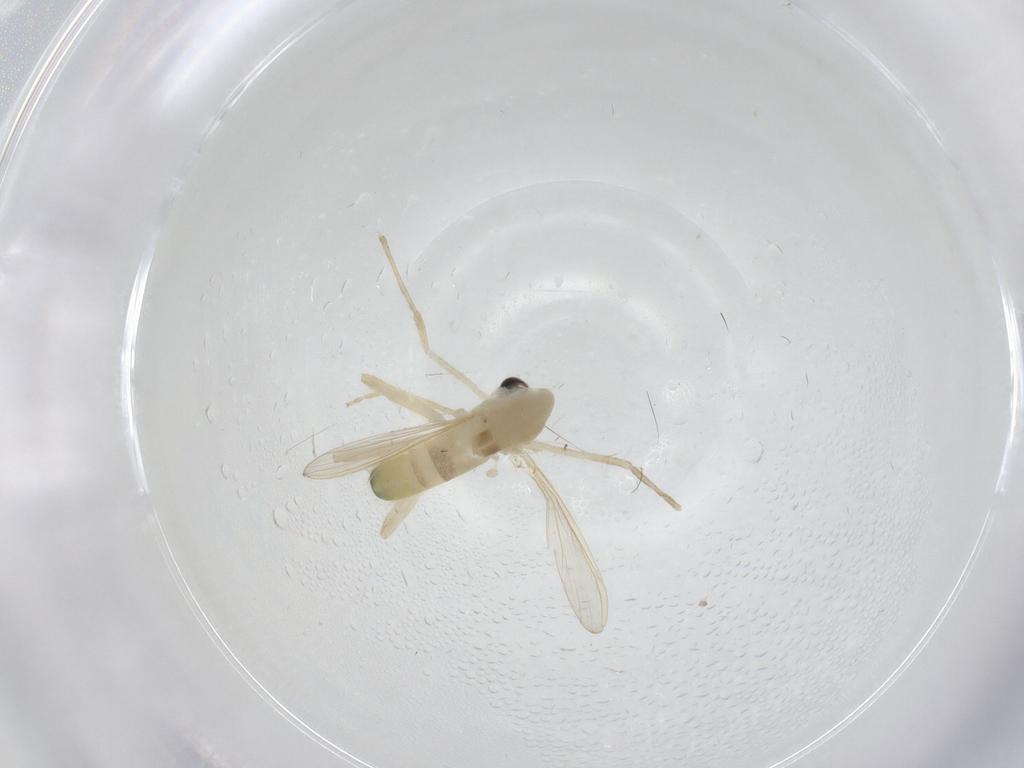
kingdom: Animalia
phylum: Arthropoda
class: Insecta
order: Diptera
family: Chironomidae
